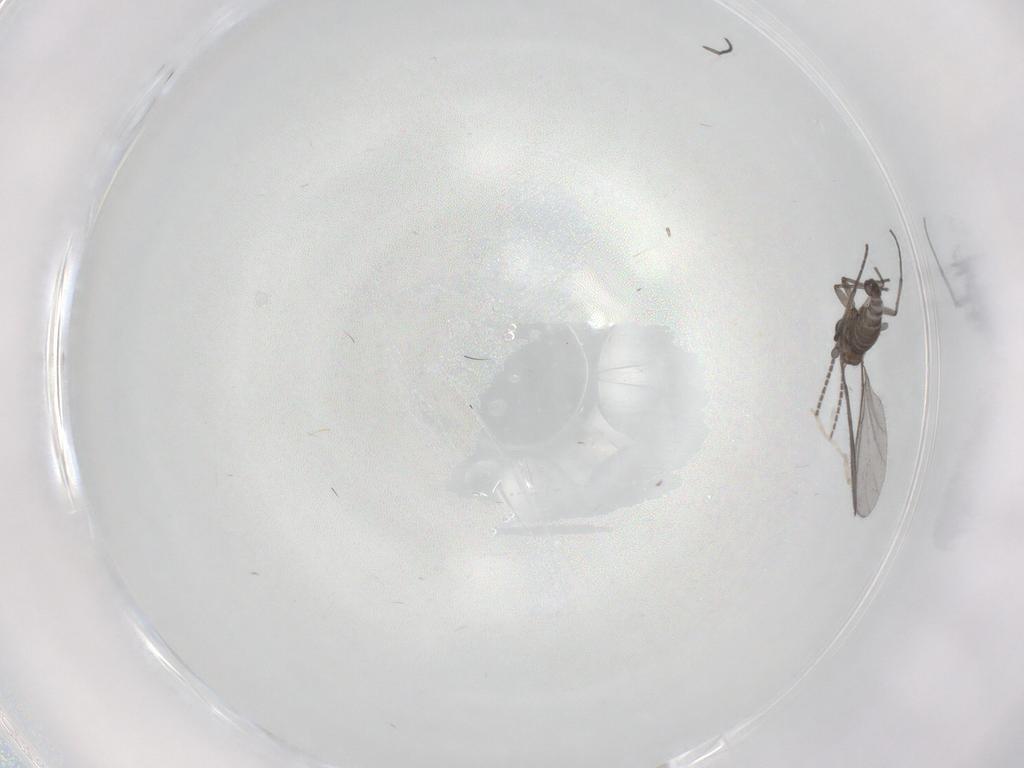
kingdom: Animalia
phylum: Arthropoda
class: Insecta
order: Diptera
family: Sciaridae
